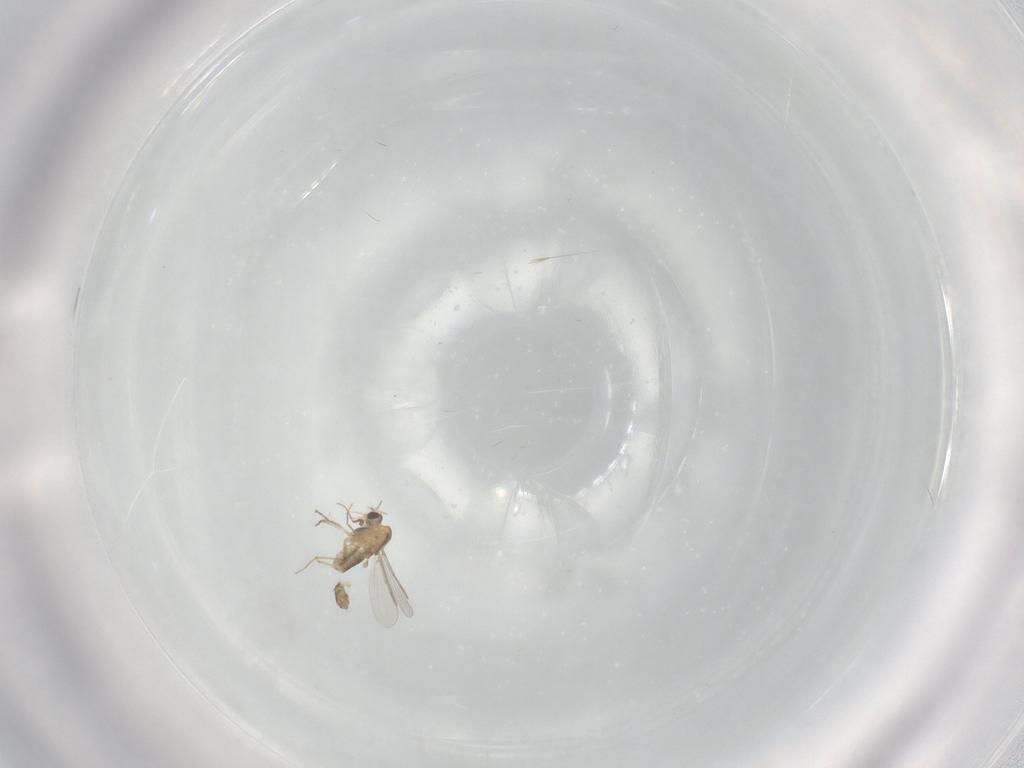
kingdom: Animalia
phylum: Arthropoda
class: Insecta
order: Diptera
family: Chironomidae
